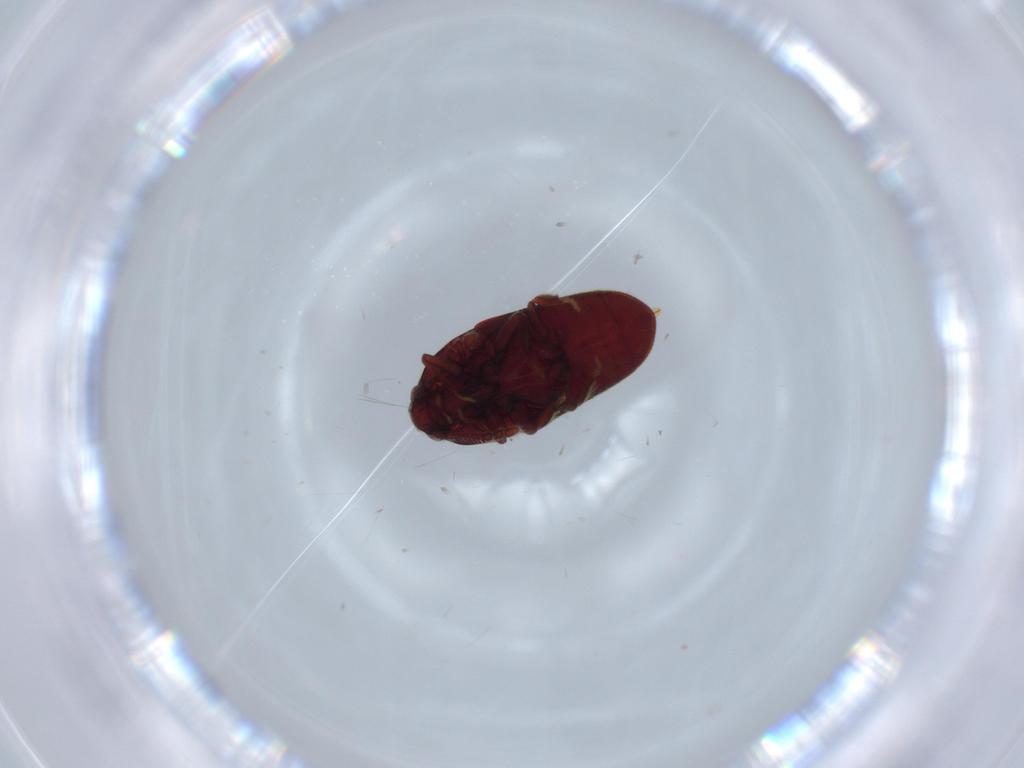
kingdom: Animalia
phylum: Arthropoda
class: Insecta
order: Coleoptera
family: Throscidae
